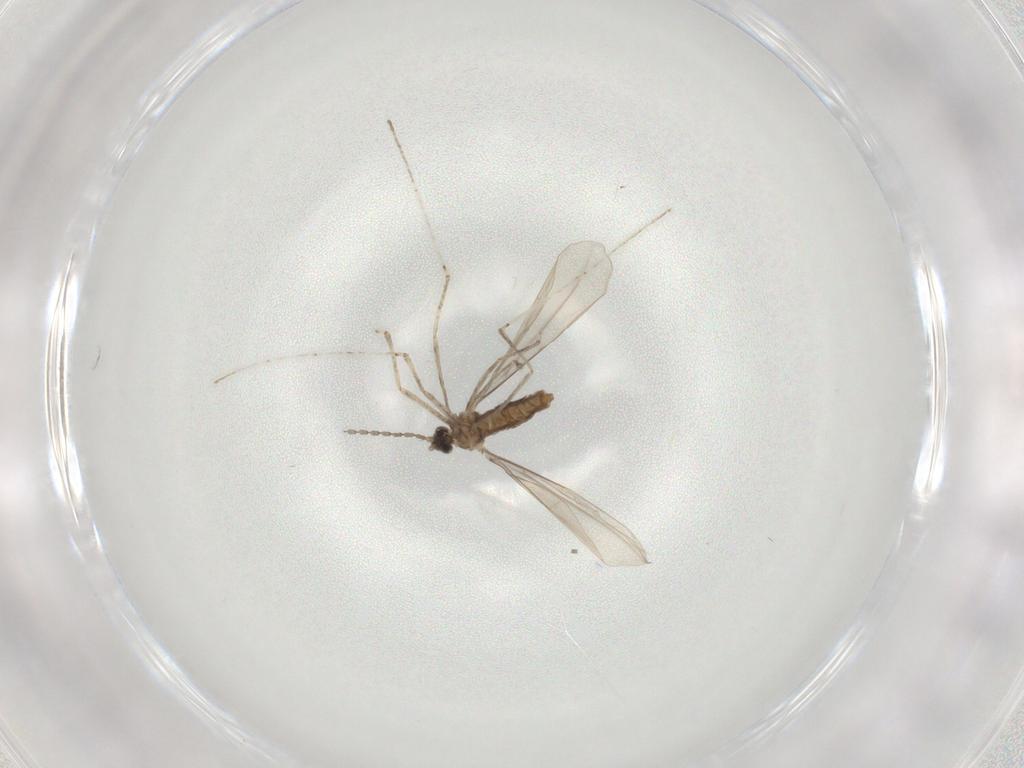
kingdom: Animalia
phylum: Arthropoda
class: Insecta
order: Diptera
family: Cecidomyiidae
